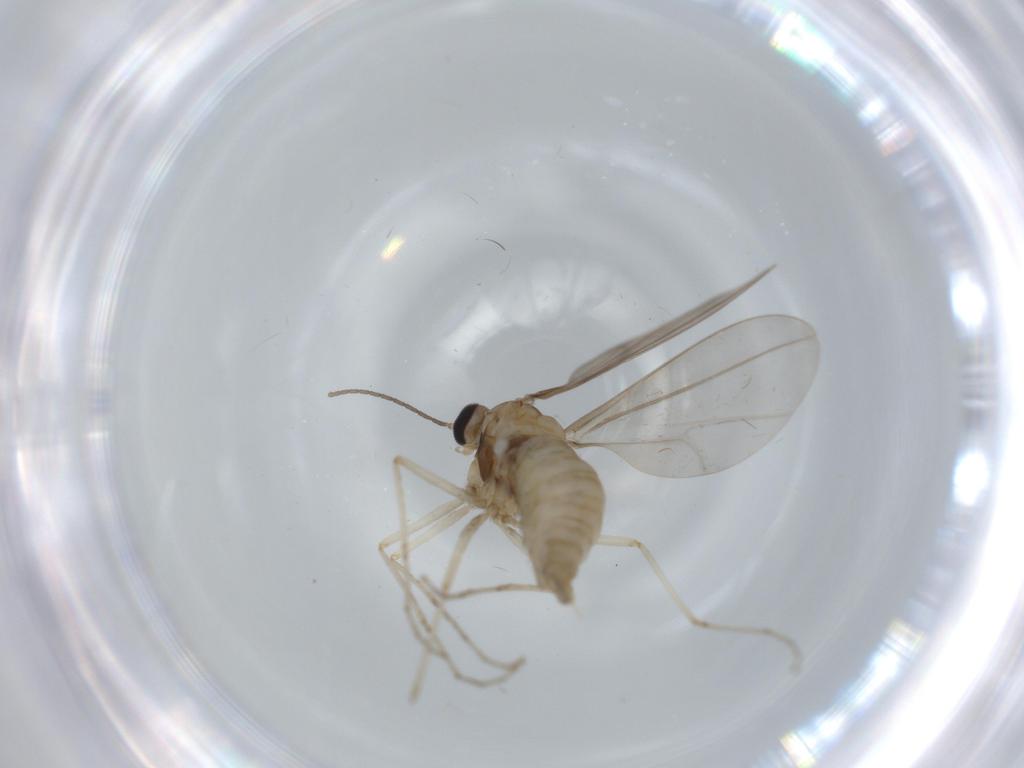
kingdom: Animalia
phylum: Arthropoda
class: Insecta
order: Diptera
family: Cecidomyiidae
